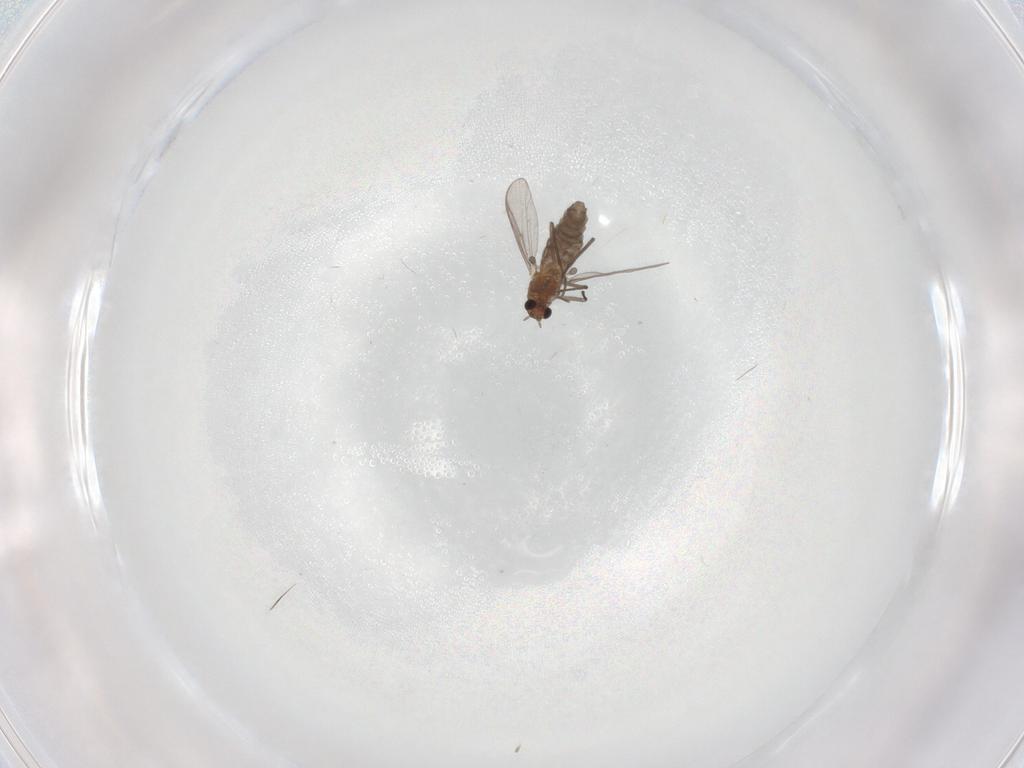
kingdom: Animalia
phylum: Arthropoda
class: Insecta
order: Diptera
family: Chironomidae
